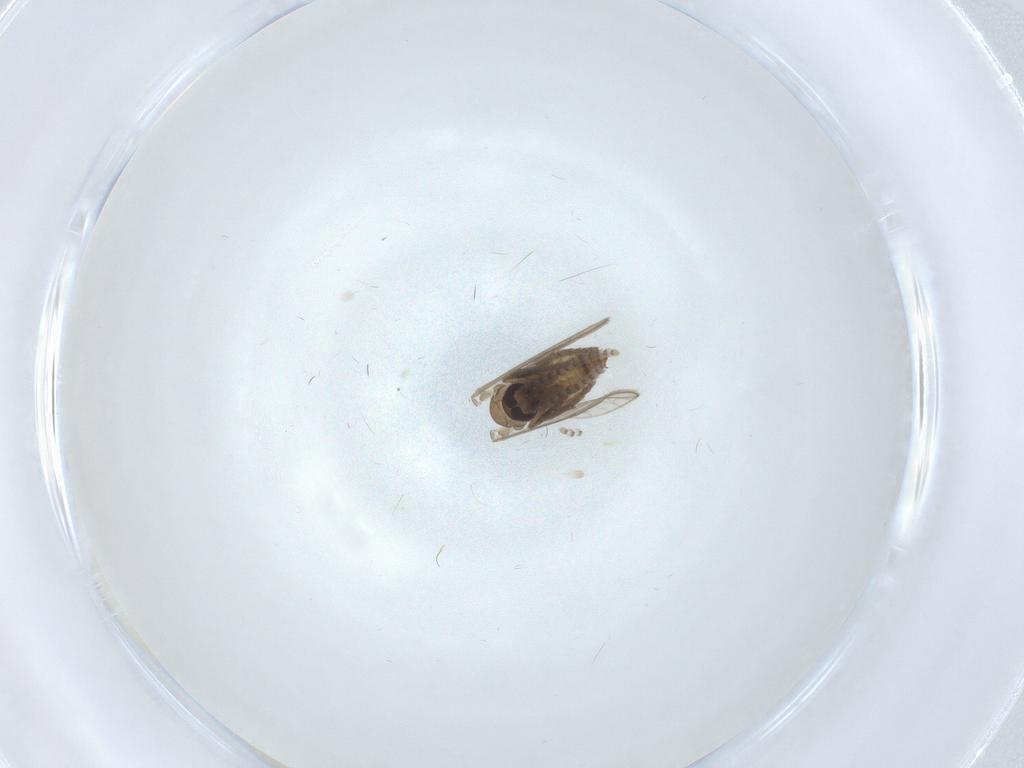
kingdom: Animalia
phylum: Arthropoda
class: Insecta
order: Diptera
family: Psychodidae
